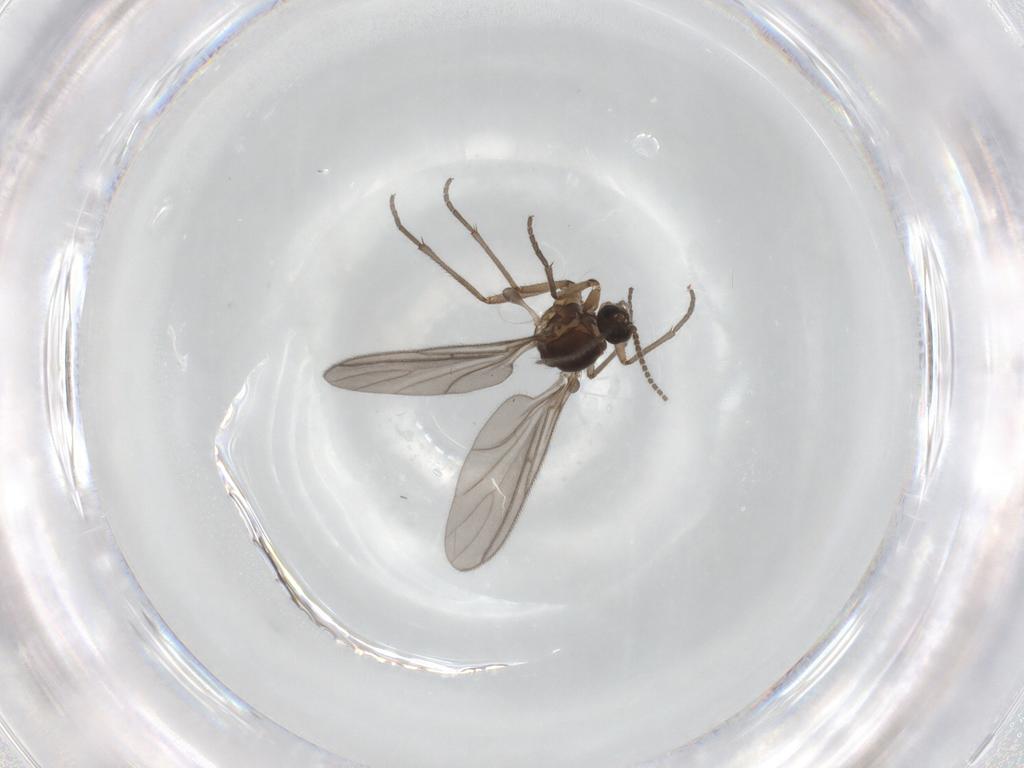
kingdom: Animalia
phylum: Arthropoda
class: Insecta
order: Diptera
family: Sciaridae
